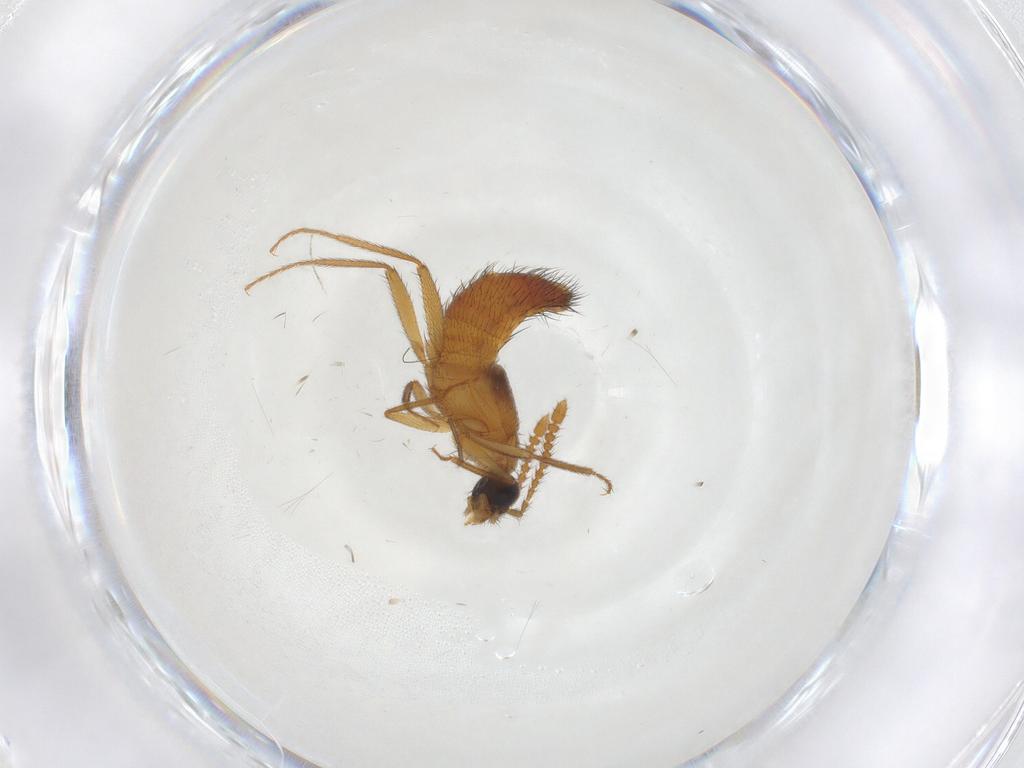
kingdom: Animalia
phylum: Arthropoda
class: Insecta
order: Coleoptera
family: Staphylinidae
